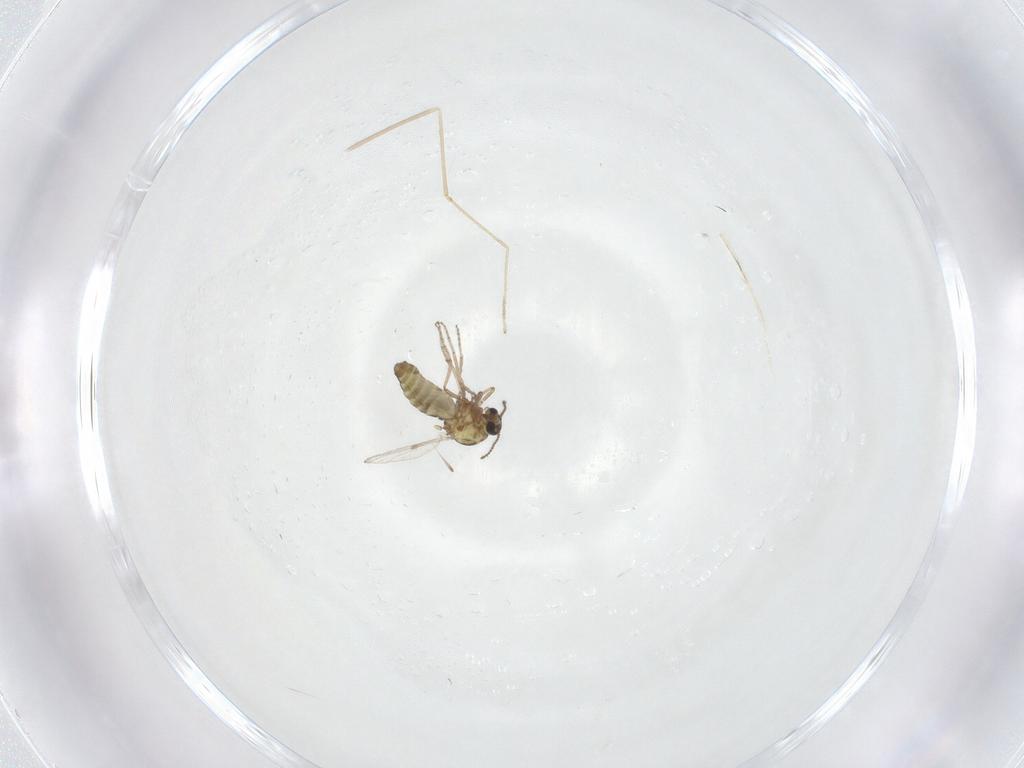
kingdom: Animalia
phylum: Arthropoda
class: Insecta
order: Diptera
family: Ceratopogonidae
